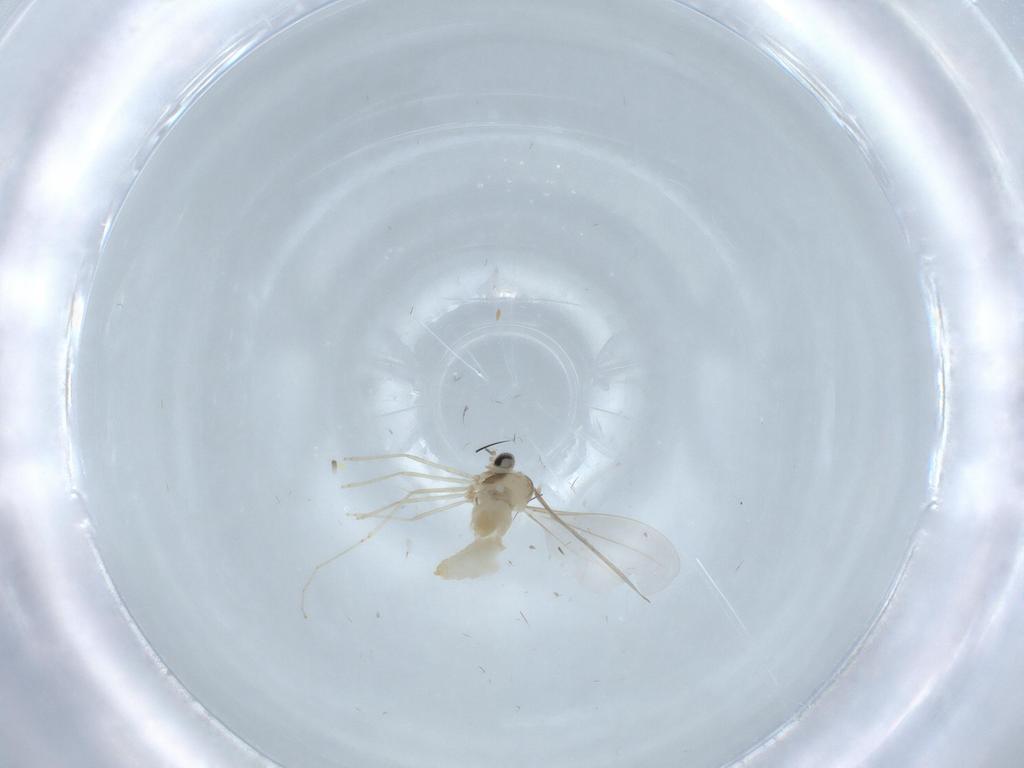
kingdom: Animalia
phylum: Arthropoda
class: Insecta
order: Diptera
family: Cecidomyiidae
